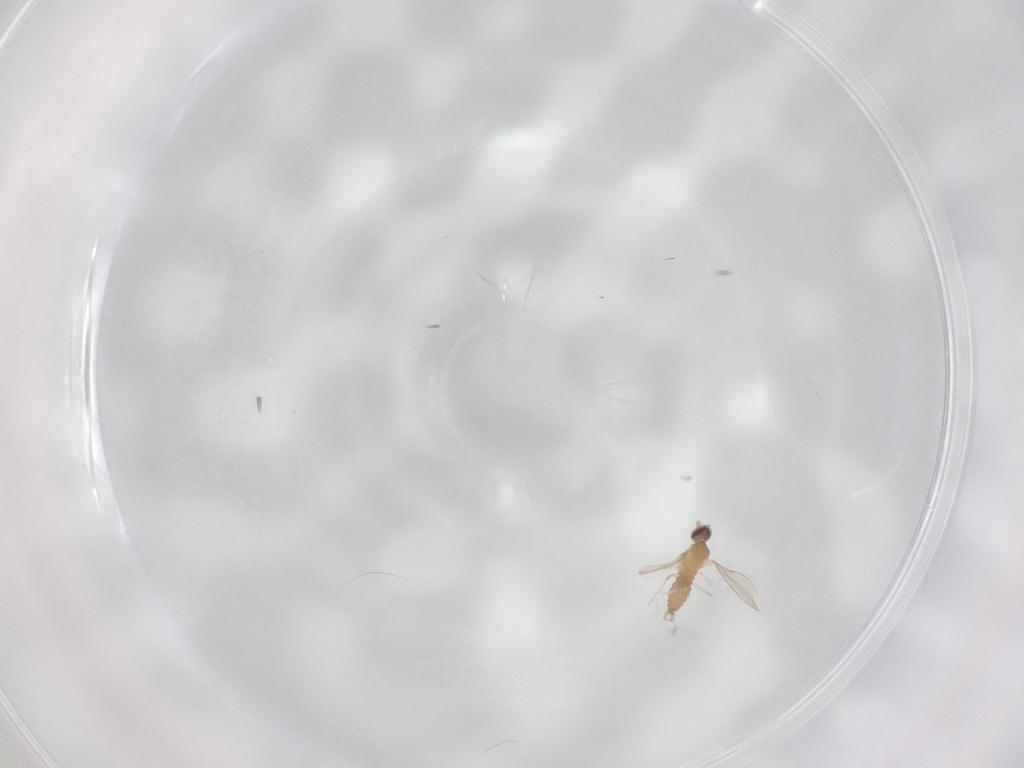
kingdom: Animalia
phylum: Arthropoda
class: Insecta
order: Diptera
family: Cecidomyiidae
